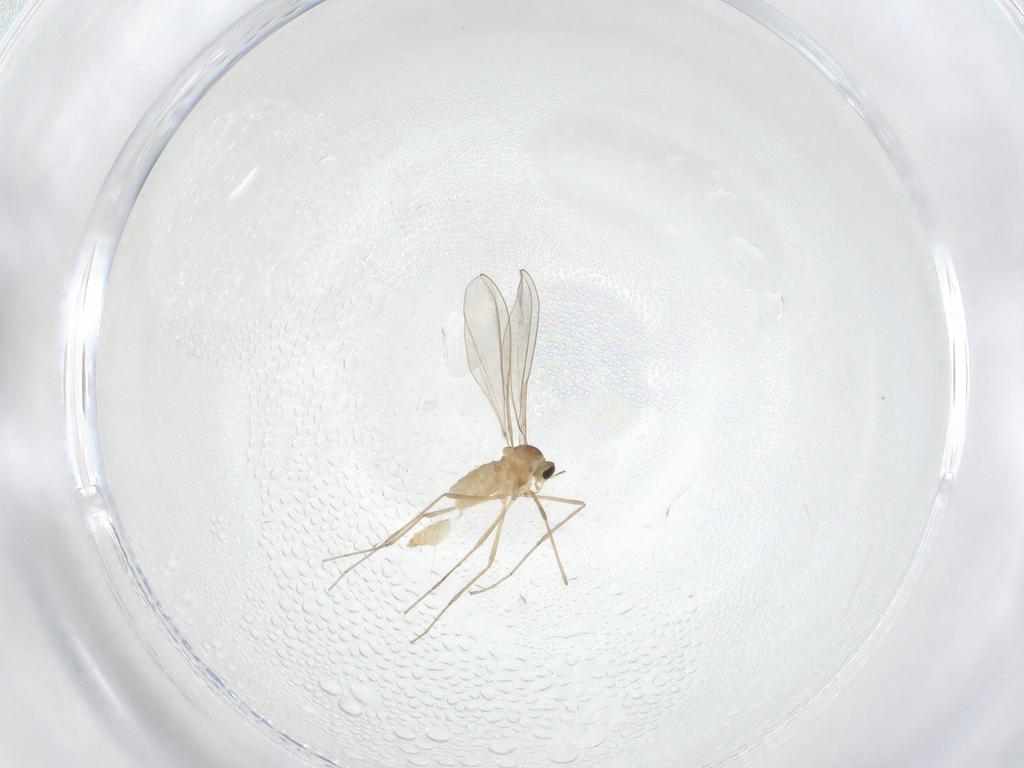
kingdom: Animalia
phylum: Arthropoda
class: Insecta
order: Diptera
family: Cecidomyiidae
